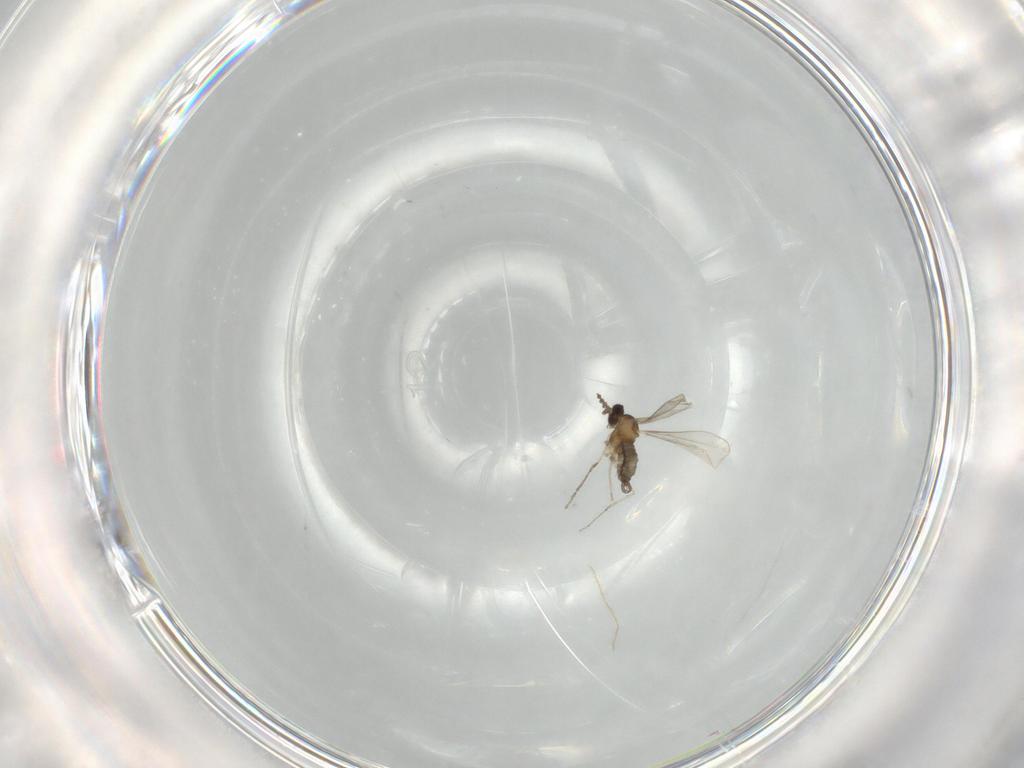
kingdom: Animalia
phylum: Arthropoda
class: Insecta
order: Diptera
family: Cecidomyiidae
